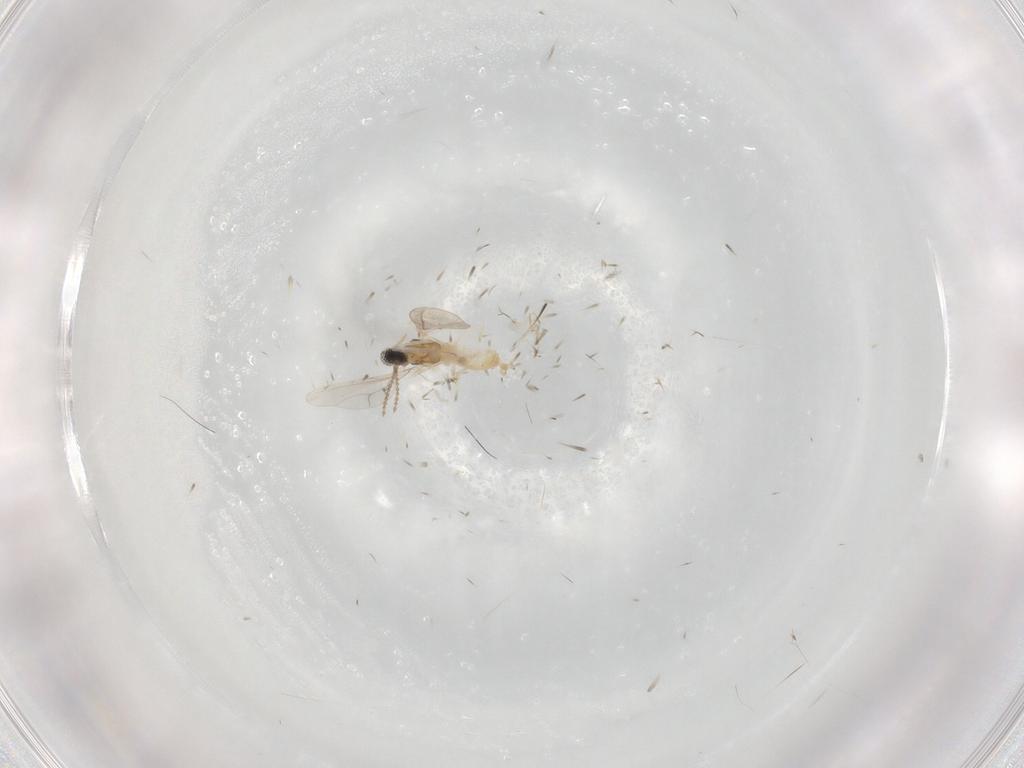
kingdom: Animalia
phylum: Arthropoda
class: Insecta
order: Diptera
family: Cecidomyiidae
